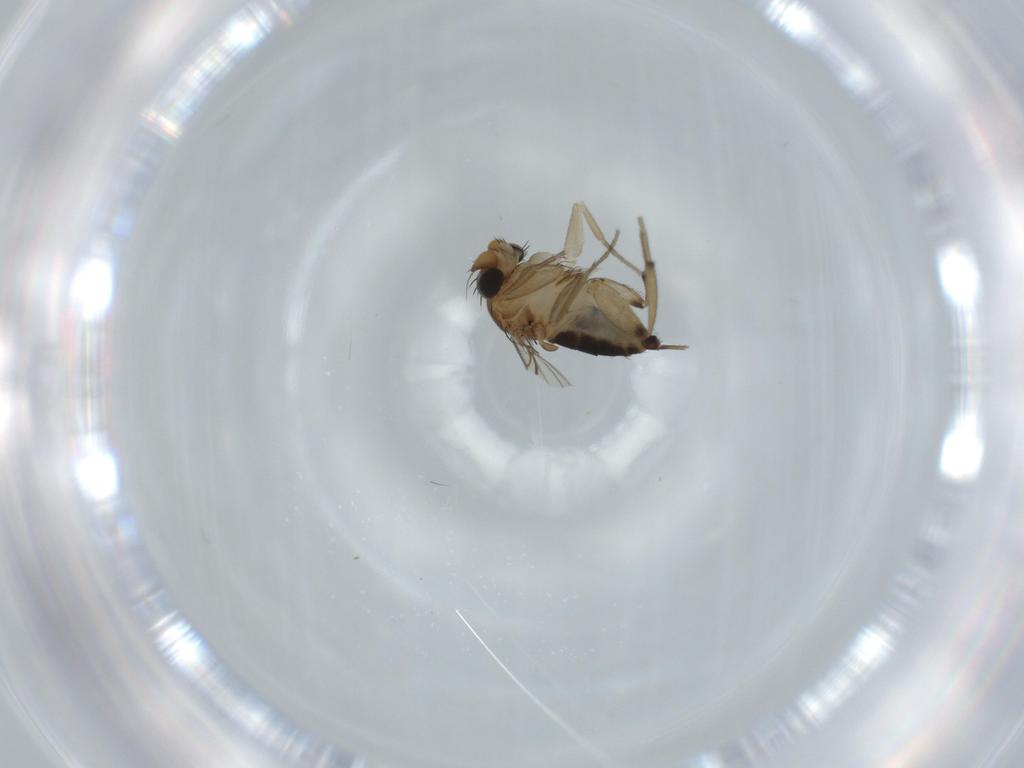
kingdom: Animalia
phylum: Arthropoda
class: Insecta
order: Diptera
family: Phoridae
